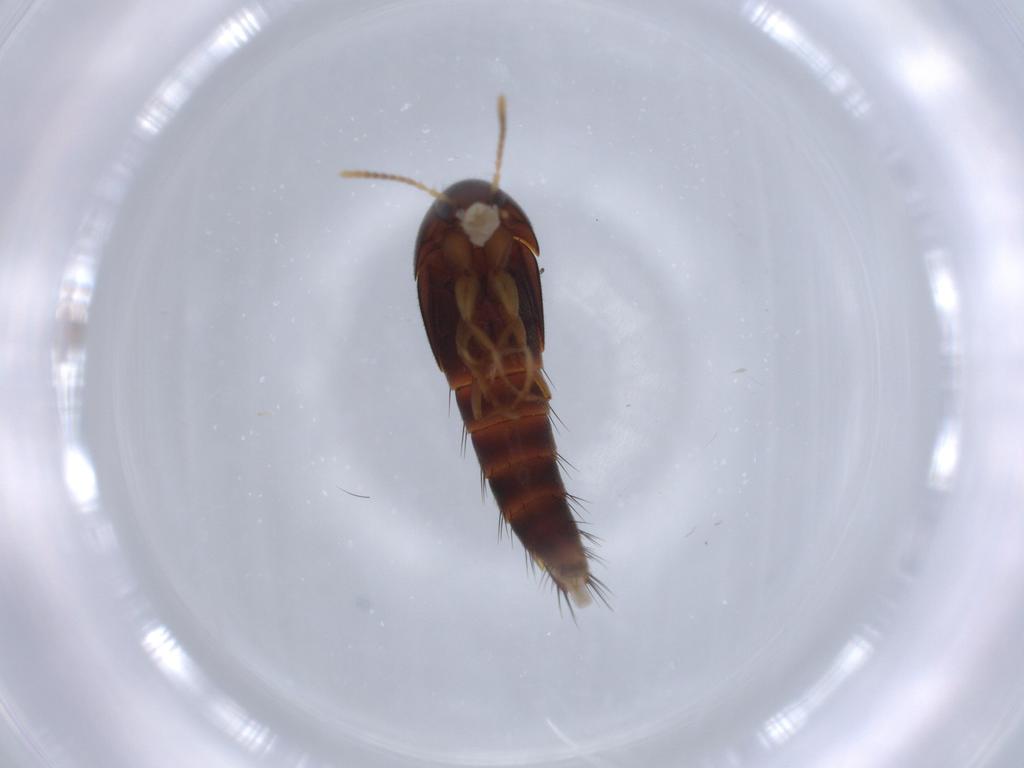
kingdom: Animalia
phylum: Arthropoda
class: Insecta
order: Coleoptera
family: Staphylinidae
